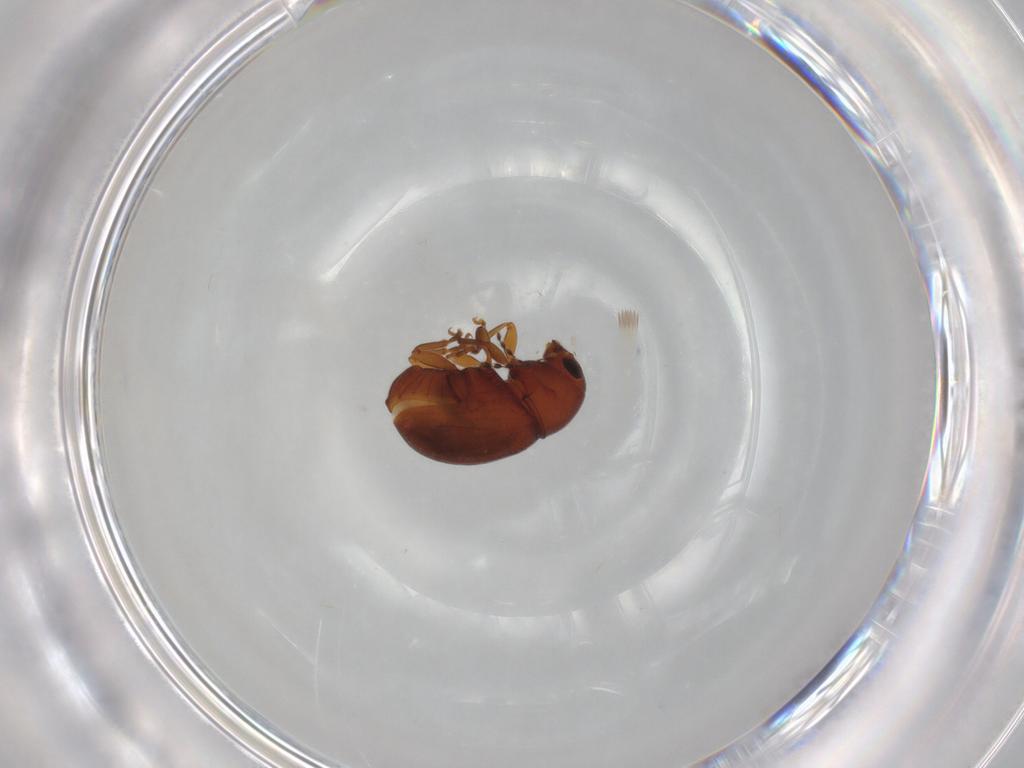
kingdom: Animalia
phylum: Arthropoda
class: Insecta
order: Coleoptera
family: Anthribidae
